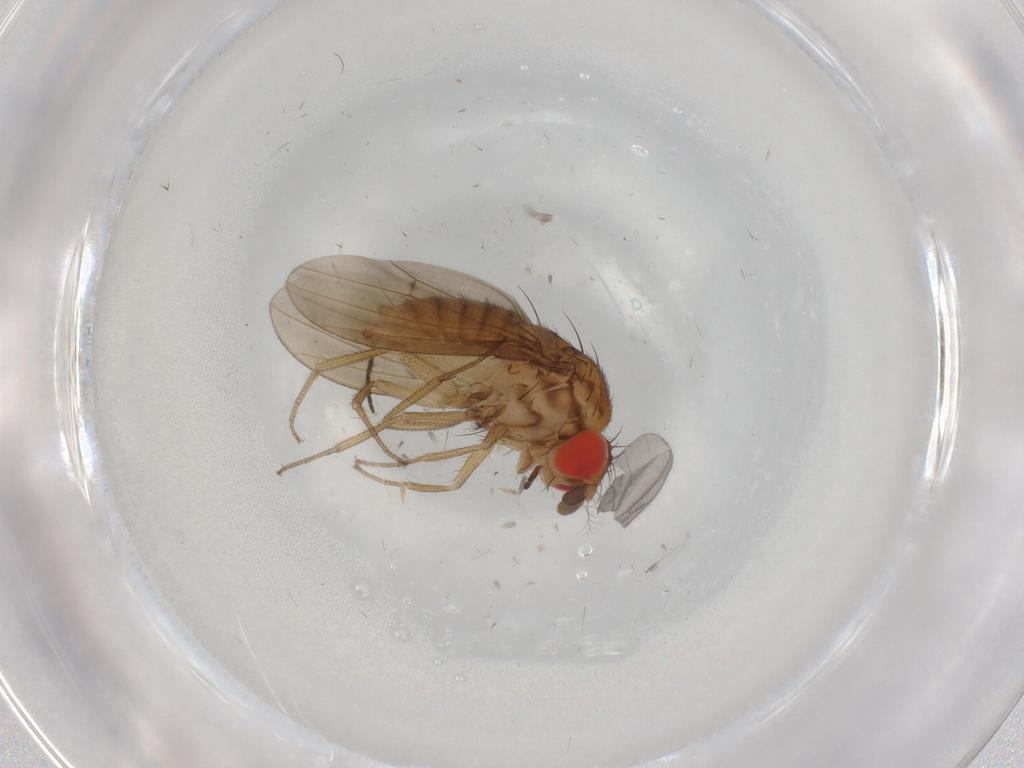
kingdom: Animalia
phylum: Arthropoda
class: Insecta
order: Diptera
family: Drosophilidae
